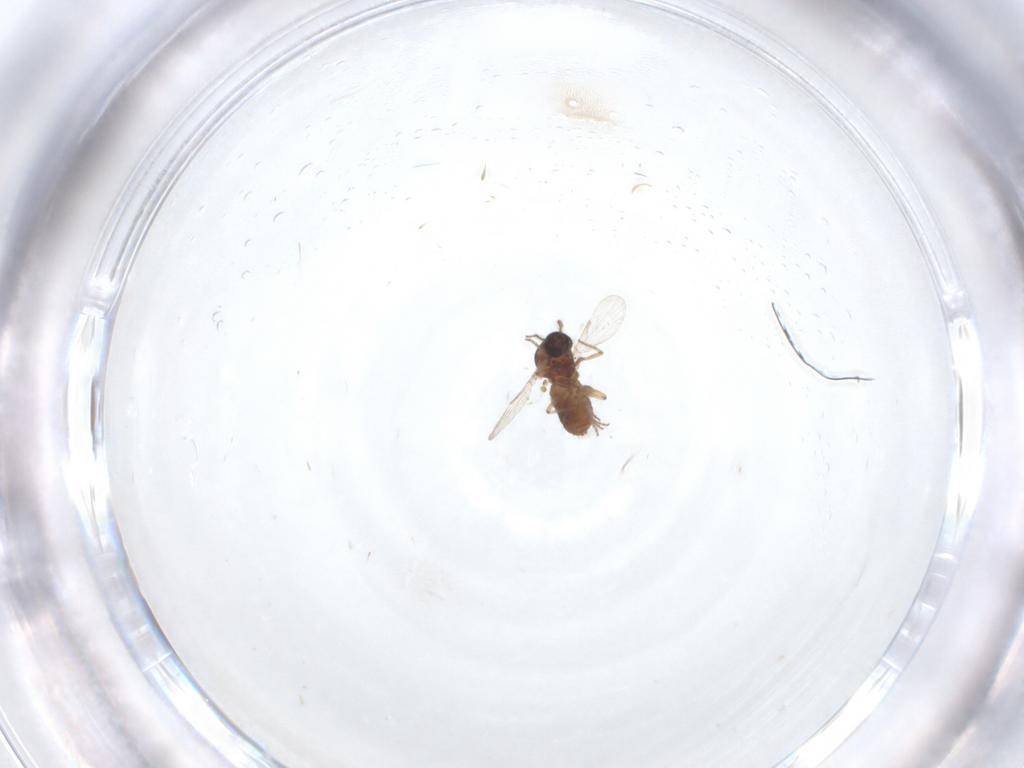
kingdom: Animalia
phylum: Arthropoda
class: Insecta
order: Diptera
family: Ceratopogonidae
